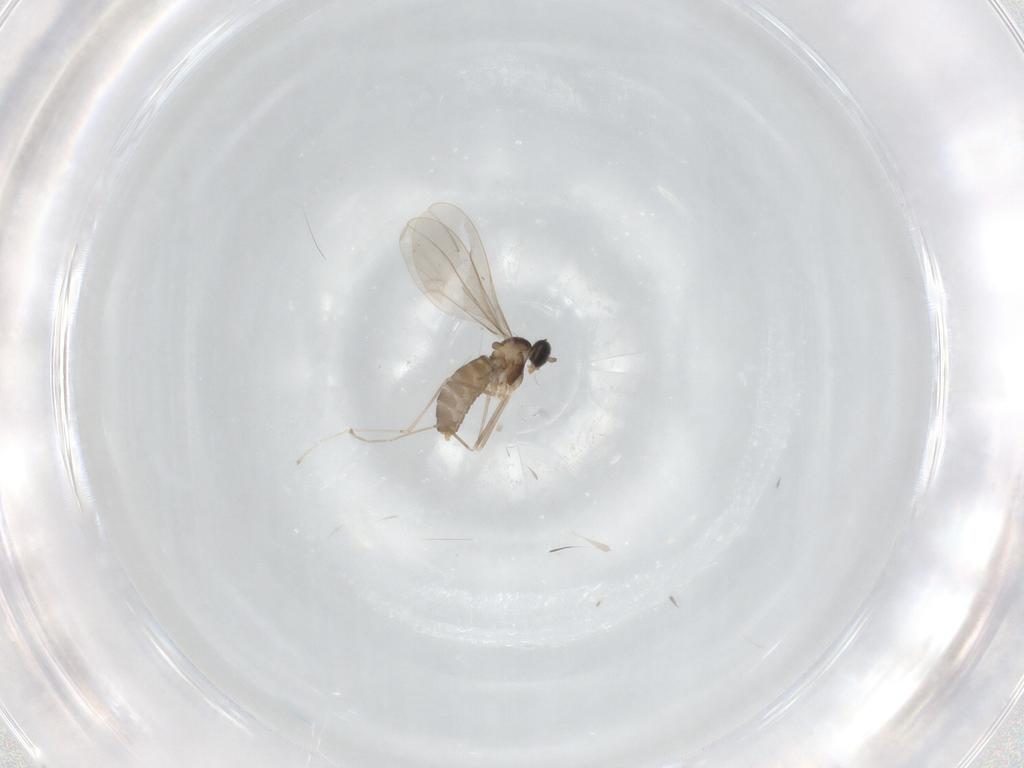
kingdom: Animalia
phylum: Arthropoda
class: Insecta
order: Diptera
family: Cecidomyiidae
